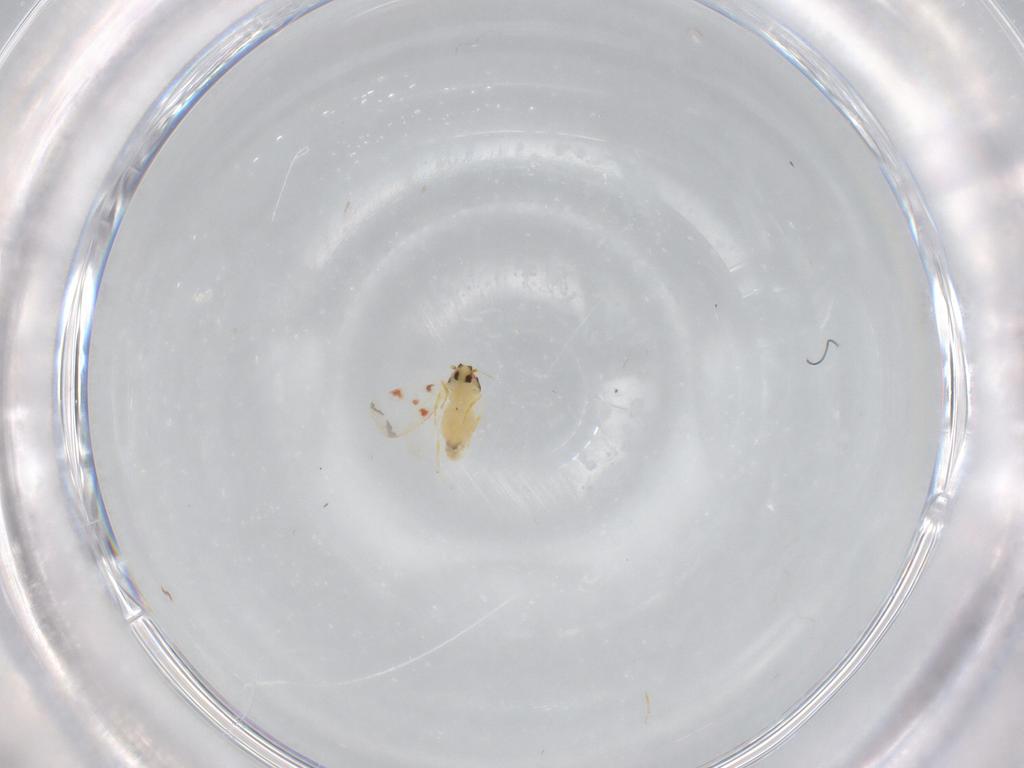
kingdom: Animalia
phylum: Arthropoda
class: Insecta
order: Hemiptera
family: Aleyrodidae
